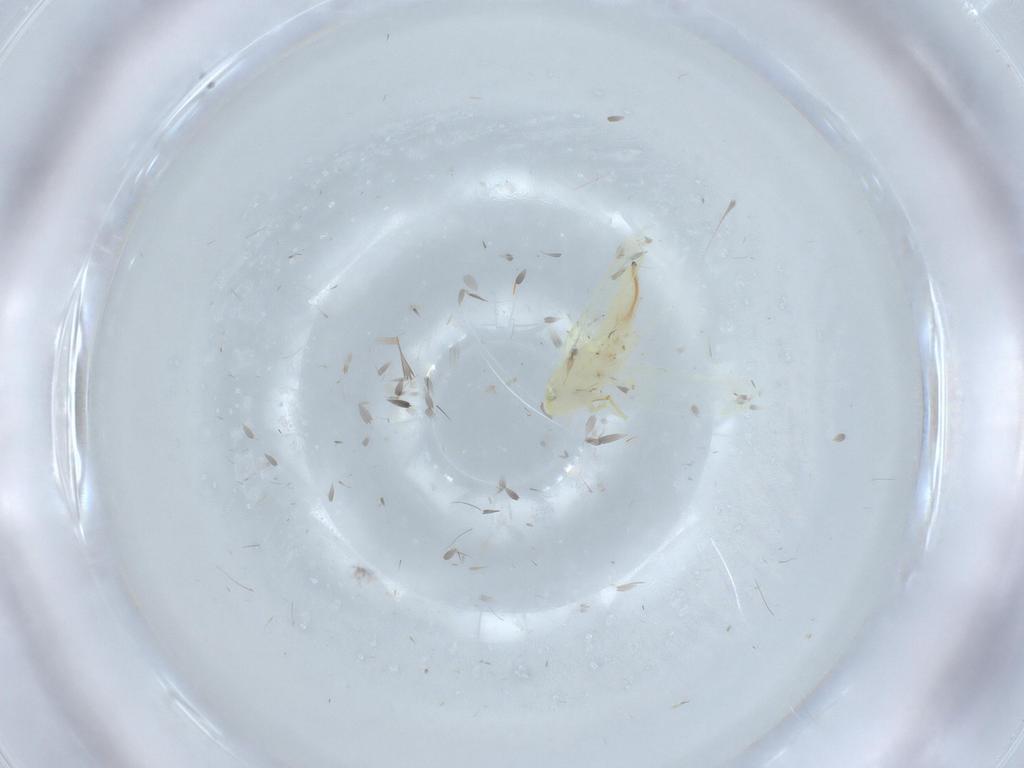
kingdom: Animalia
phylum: Arthropoda
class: Insecta
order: Hemiptera
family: Cicadellidae
